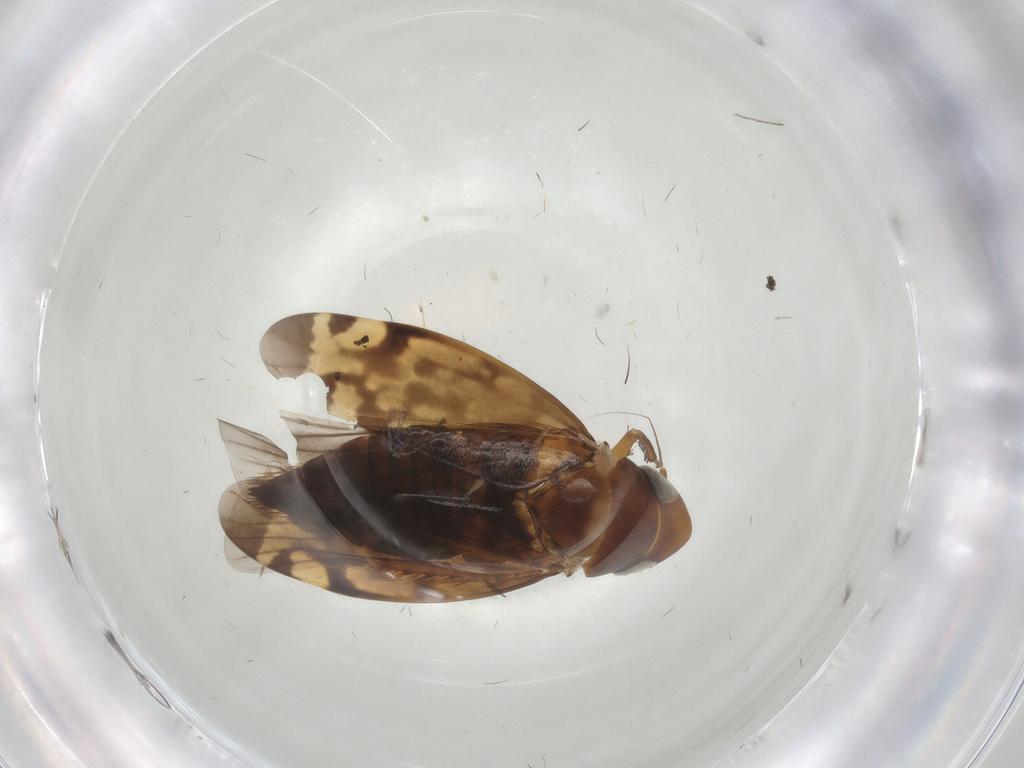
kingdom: Animalia
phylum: Arthropoda
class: Insecta
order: Hemiptera
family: Cicadellidae
